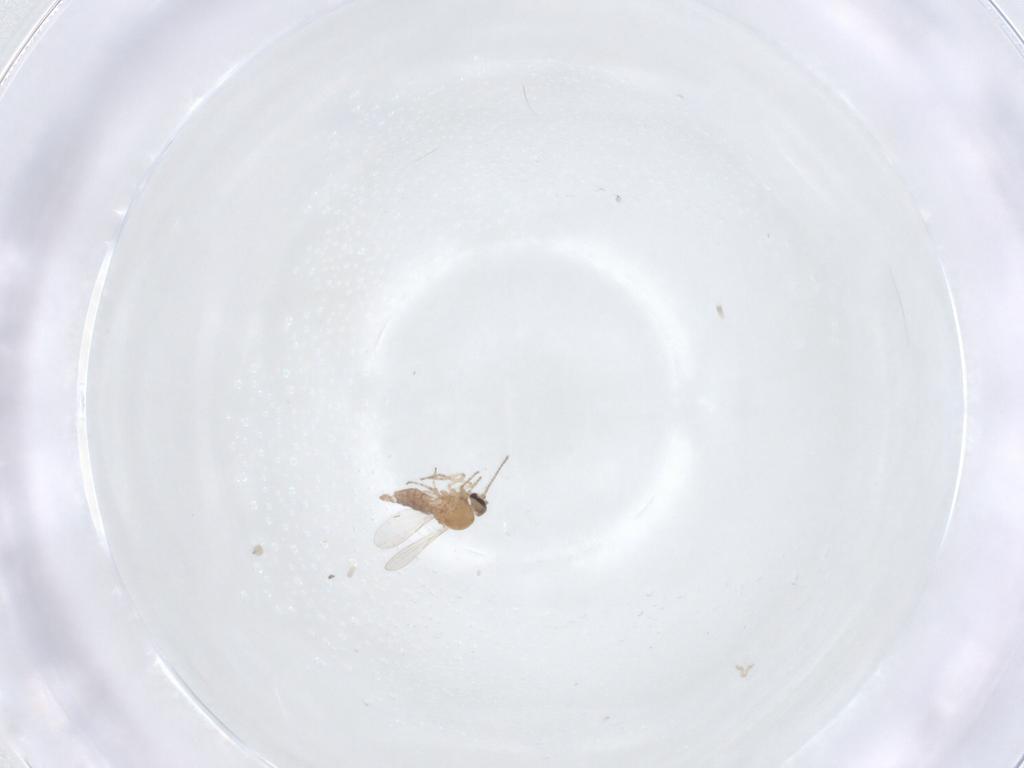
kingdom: Animalia
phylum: Arthropoda
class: Insecta
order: Diptera
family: Ceratopogonidae
